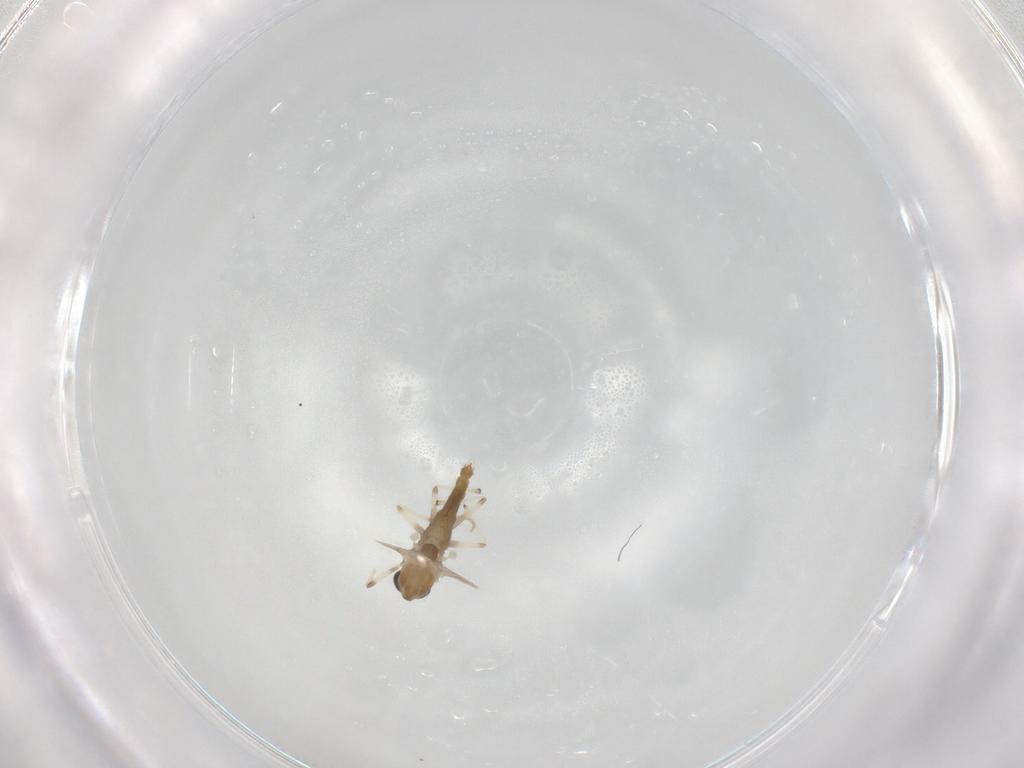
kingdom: Animalia
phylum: Arthropoda
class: Insecta
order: Diptera
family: Chironomidae
